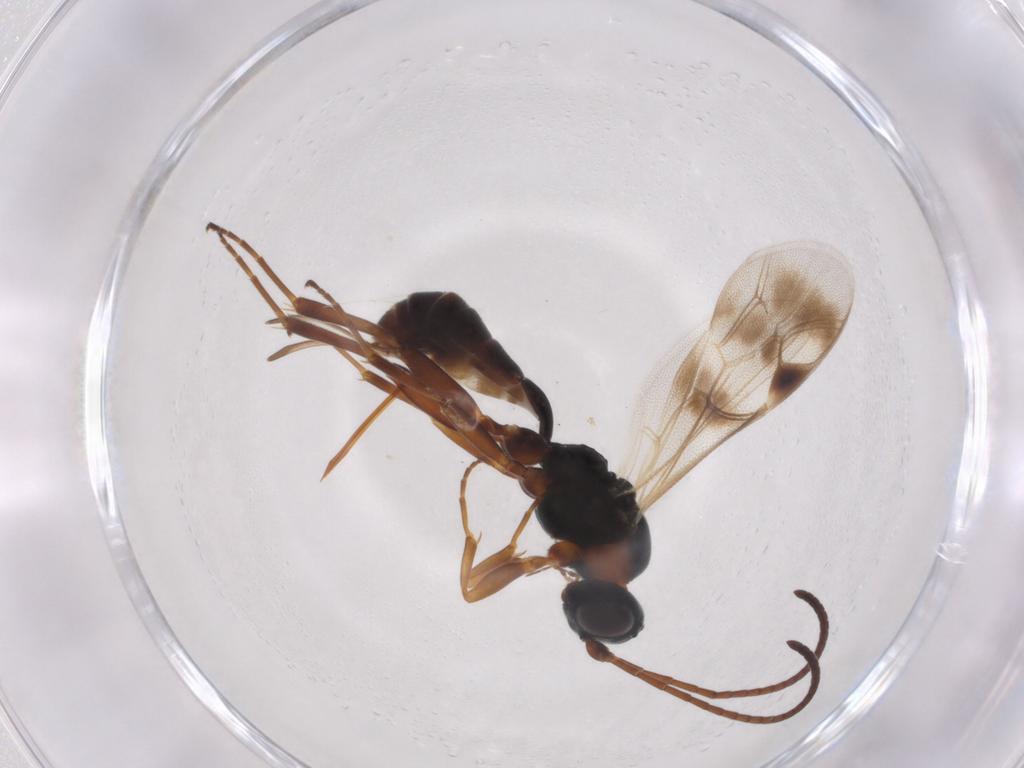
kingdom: Animalia
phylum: Arthropoda
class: Insecta
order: Hymenoptera
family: Ichneumonidae
